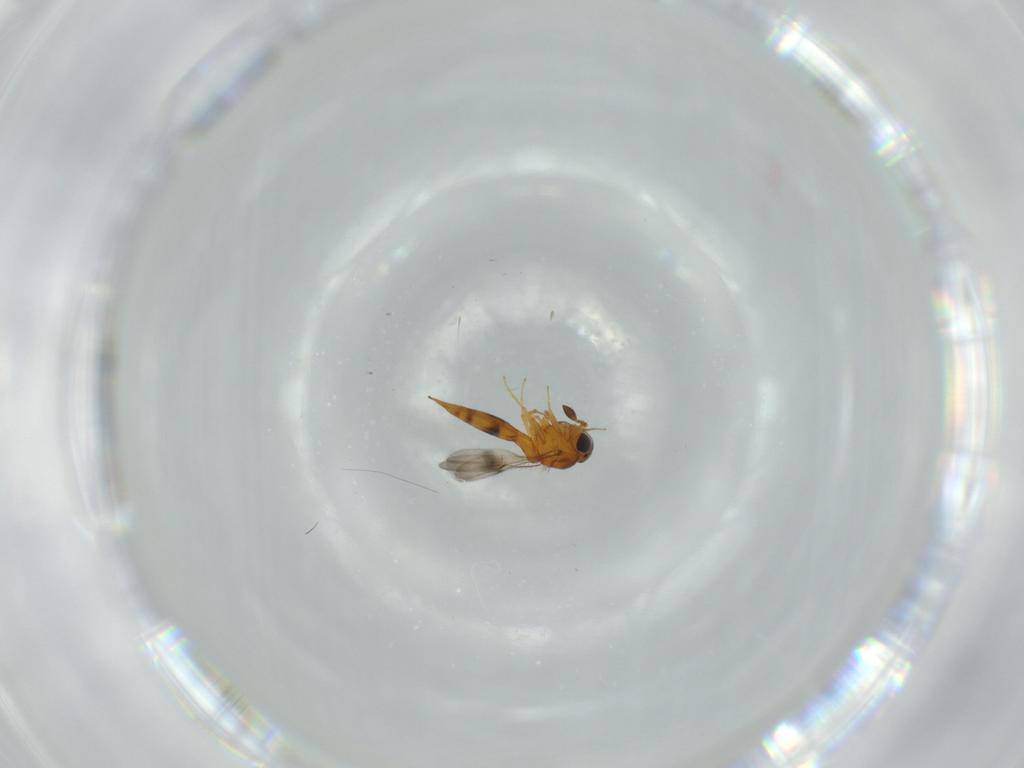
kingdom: Animalia
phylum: Arthropoda
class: Insecta
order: Hymenoptera
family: Scelionidae
